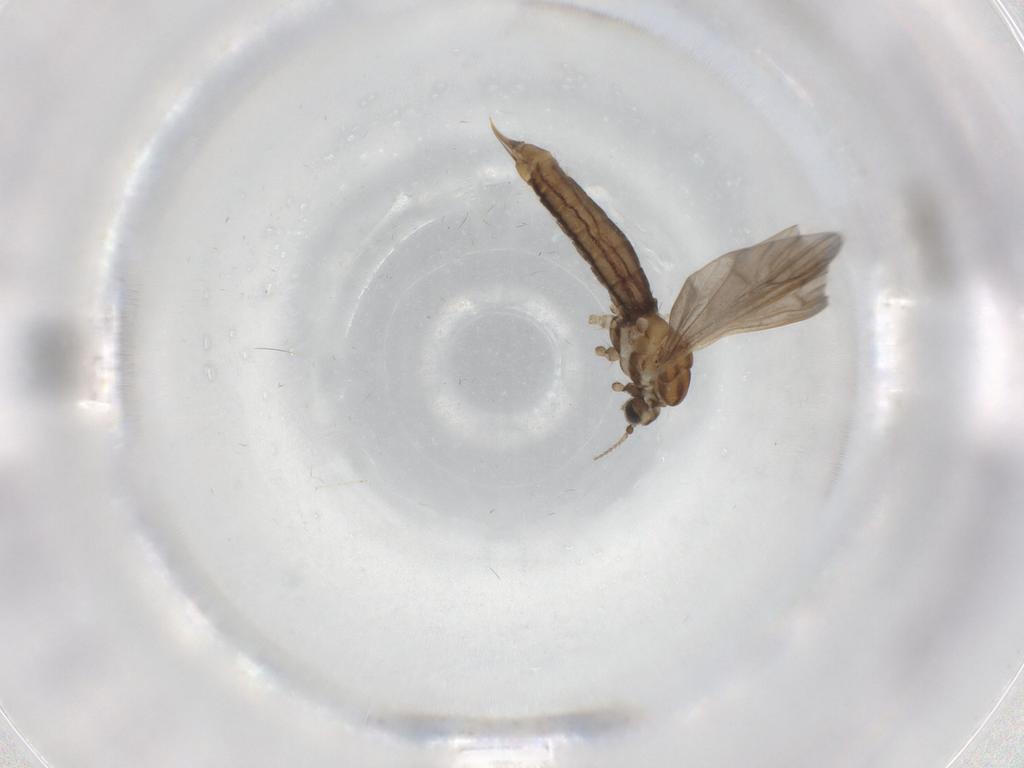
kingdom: Animalia
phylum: Arthropoda
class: Insecta
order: Diptera
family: Limoniidae
